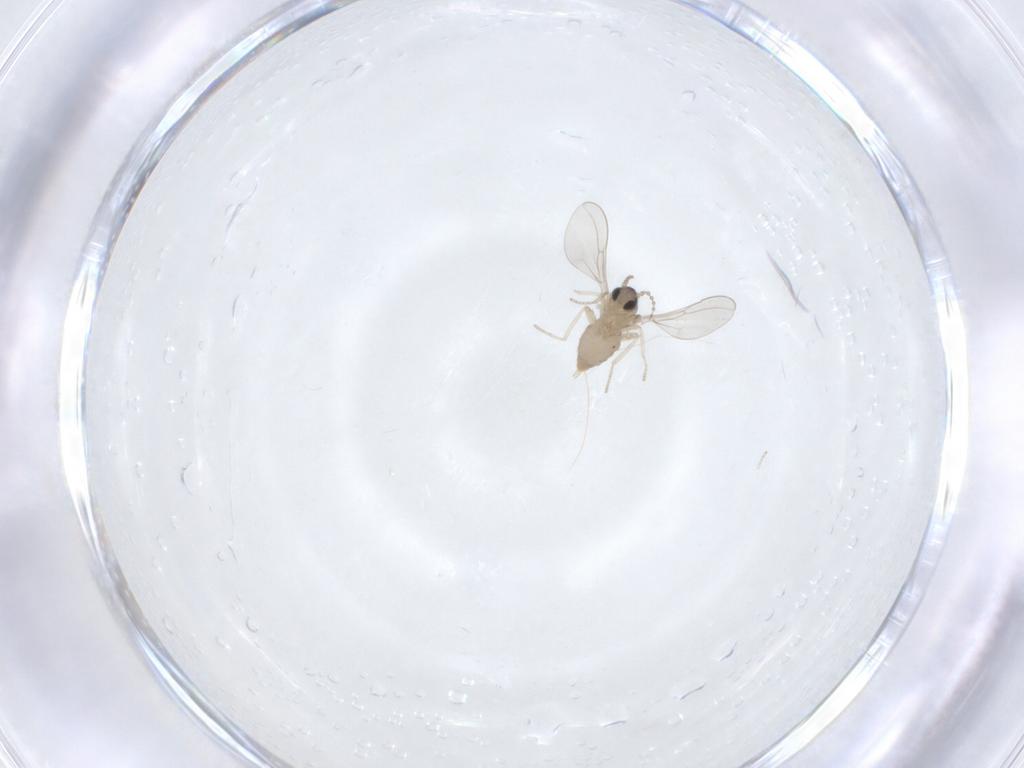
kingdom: Animalia
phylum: Arthropoda
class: Insecta
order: Diptera
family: Cecidomyiidae
